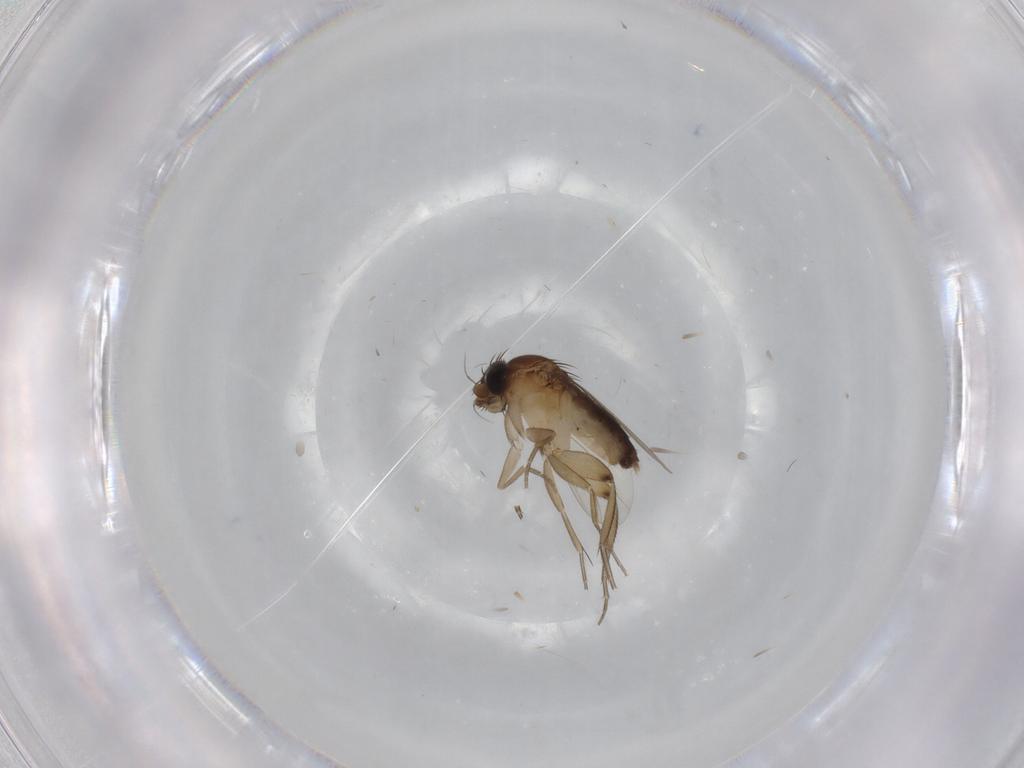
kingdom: Animalia
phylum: Arthropoda
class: Insecta
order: Diptera
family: Phoridae
